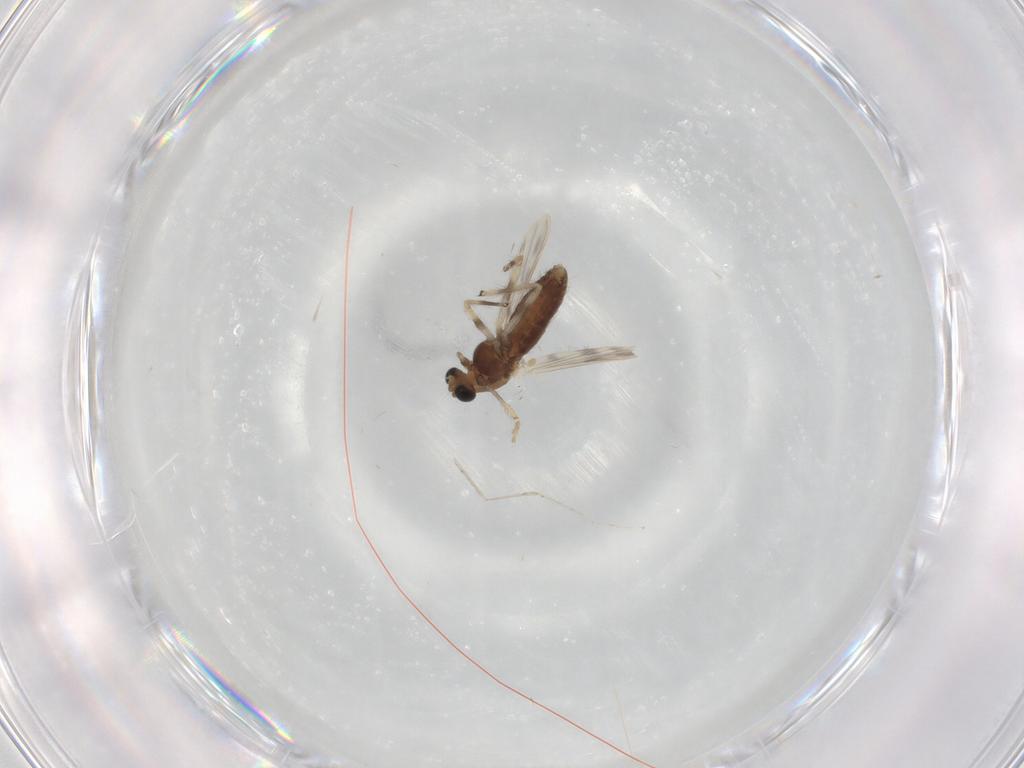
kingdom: Animalia
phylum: Arthropoda
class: Insecta
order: Diptera
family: Chironomidae
